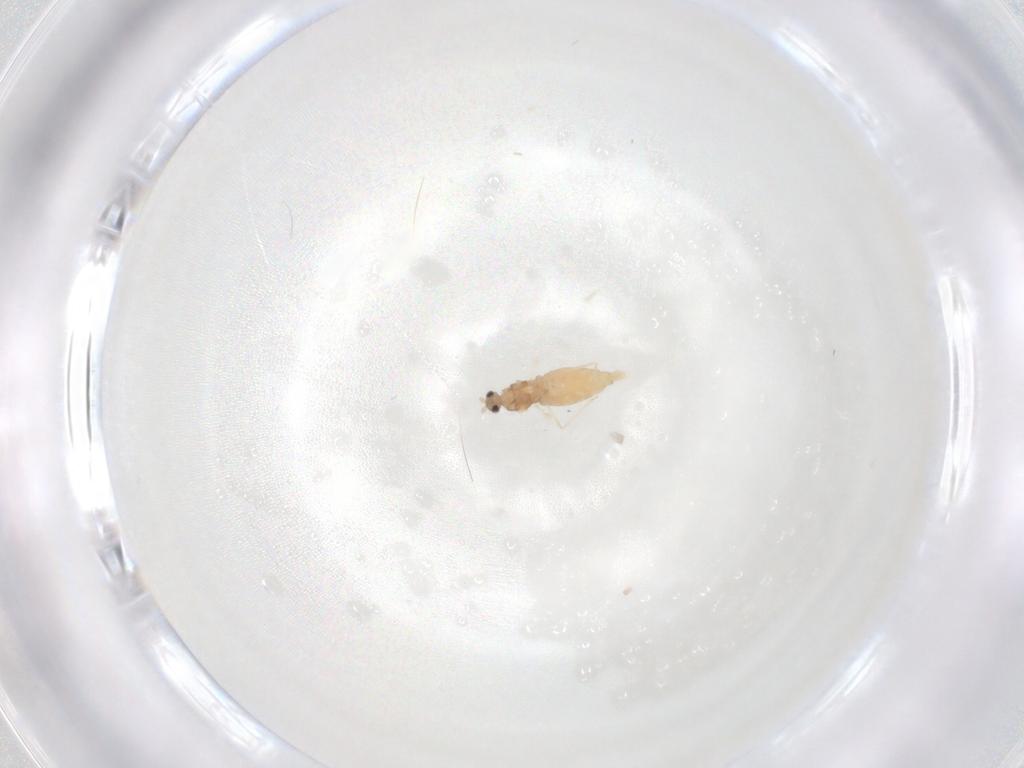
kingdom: Animalia
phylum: Arthropoda
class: Insecta
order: Diptera
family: Cecidomyiidae
